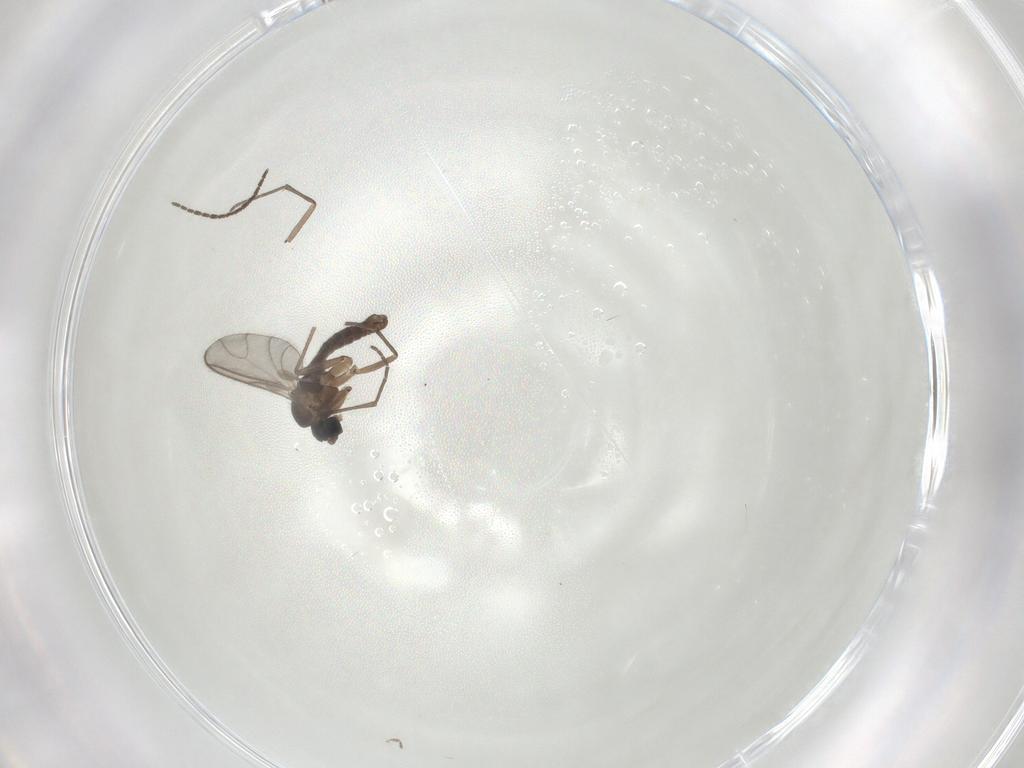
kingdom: Animalia
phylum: Arthropoda
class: Insecta
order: Diptera
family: Sciaridae
